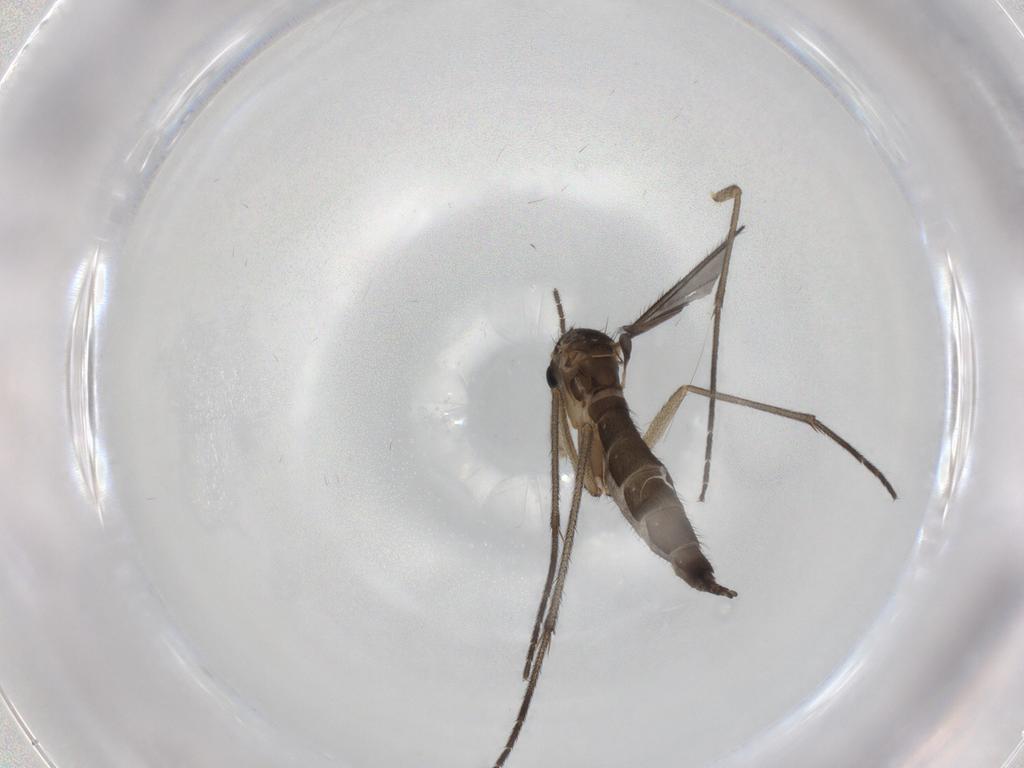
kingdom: Animalia
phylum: Arthropoda
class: Insecta
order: Diptera
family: Sciaridae
